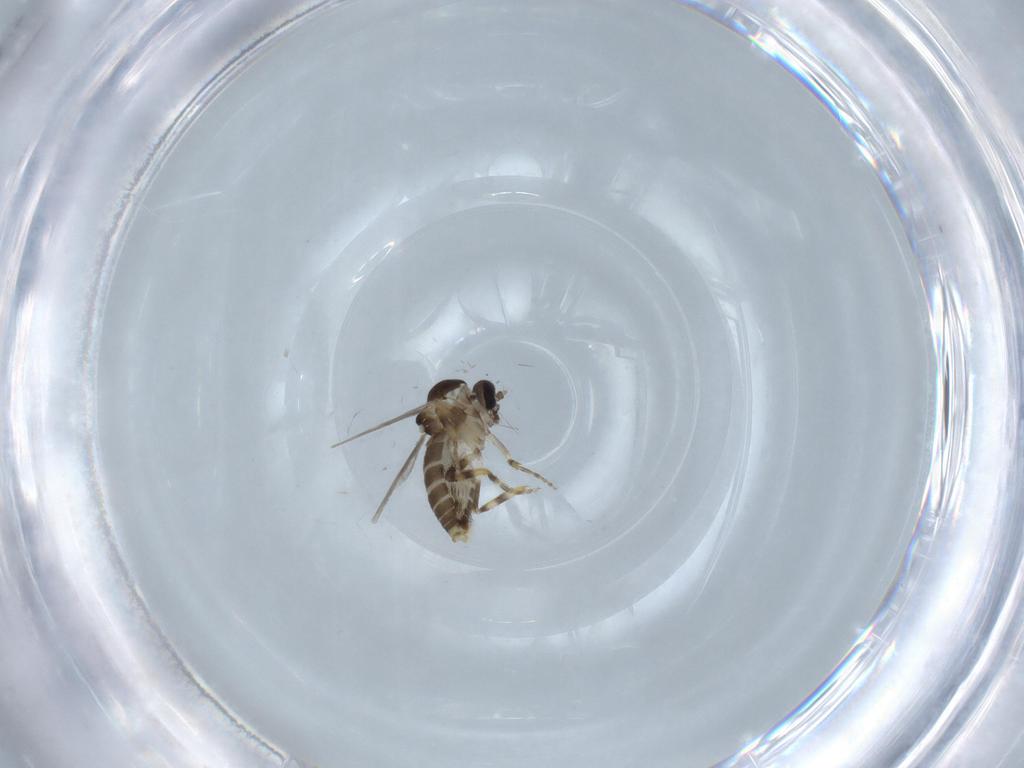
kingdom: Animalia
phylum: Arthropoda
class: Insecta
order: Diptera
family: Ceratopogonidae
